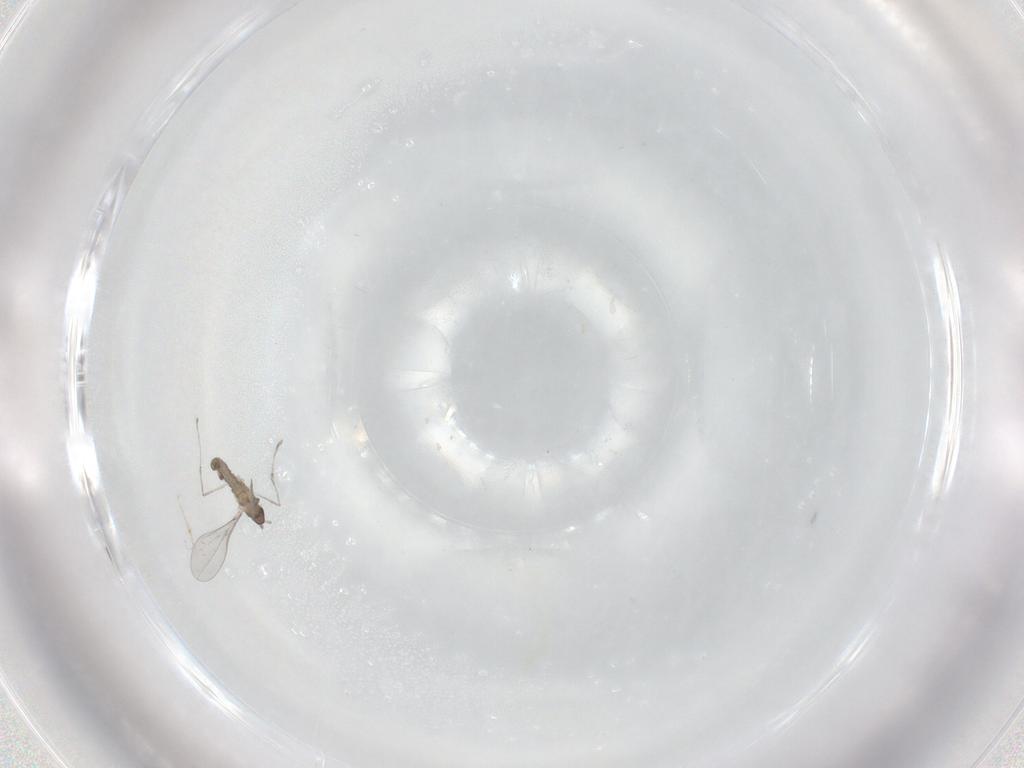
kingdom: Animalia
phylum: Arthropoda
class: Insecta
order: Diptera
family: Cecidomyiidae
